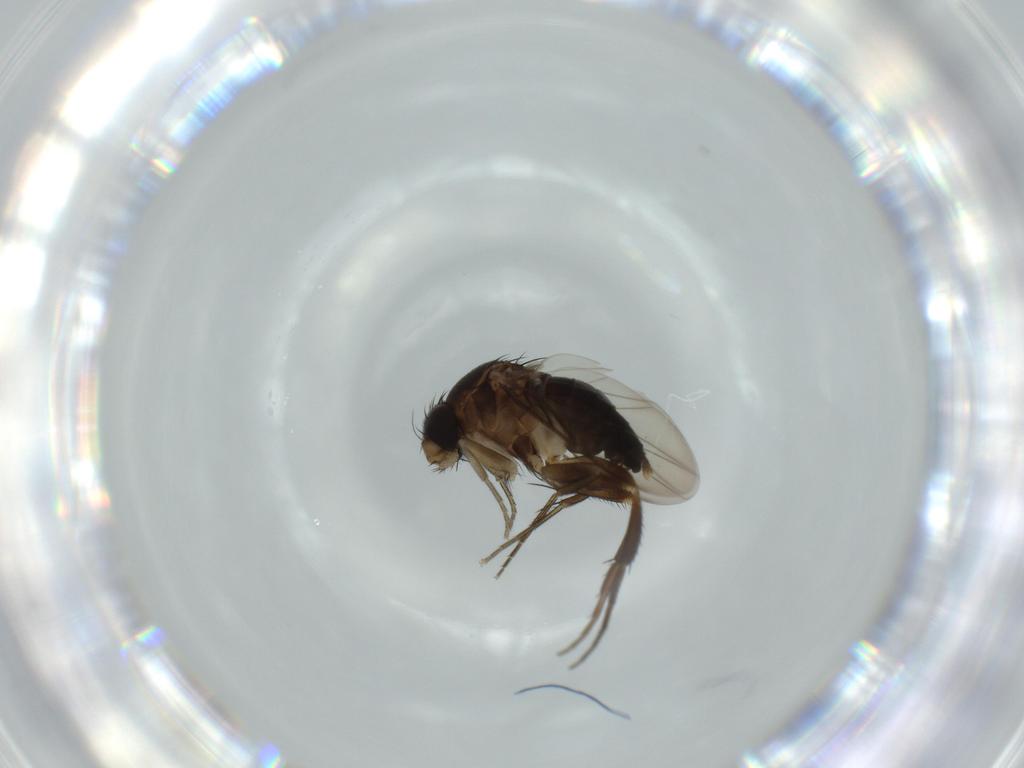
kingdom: Animalia
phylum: Arthropoda
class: Insecta
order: Diptera
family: Phoridae
